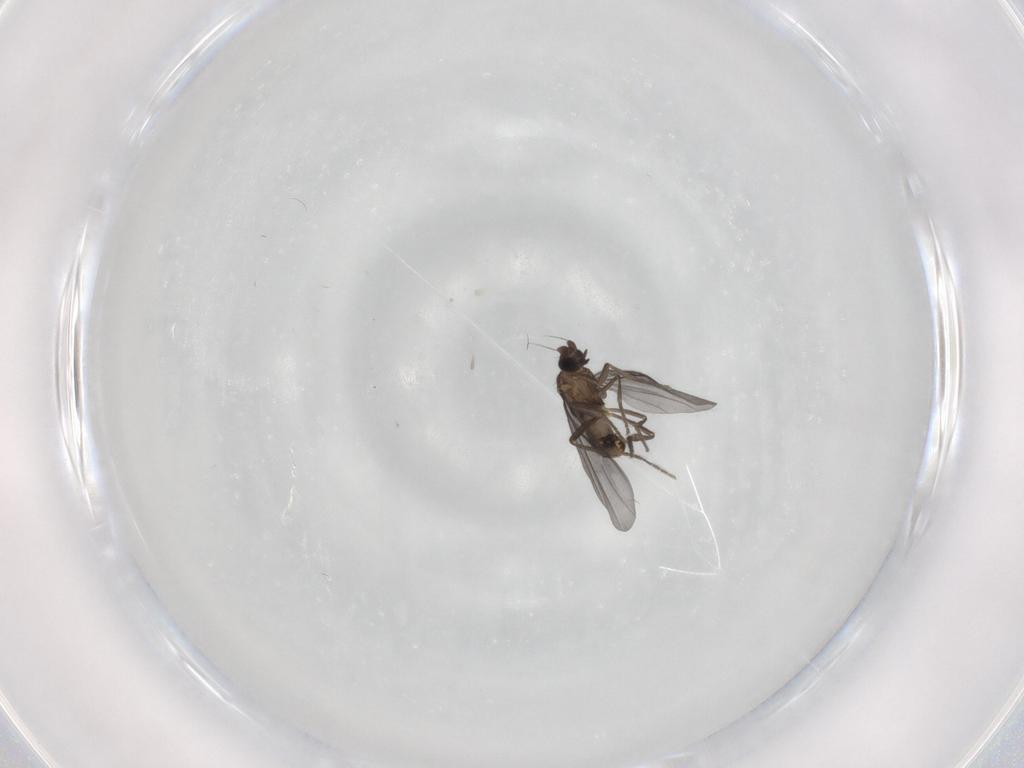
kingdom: Animalia
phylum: Arthropoda
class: Insecta
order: Diptera
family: Phoridae
